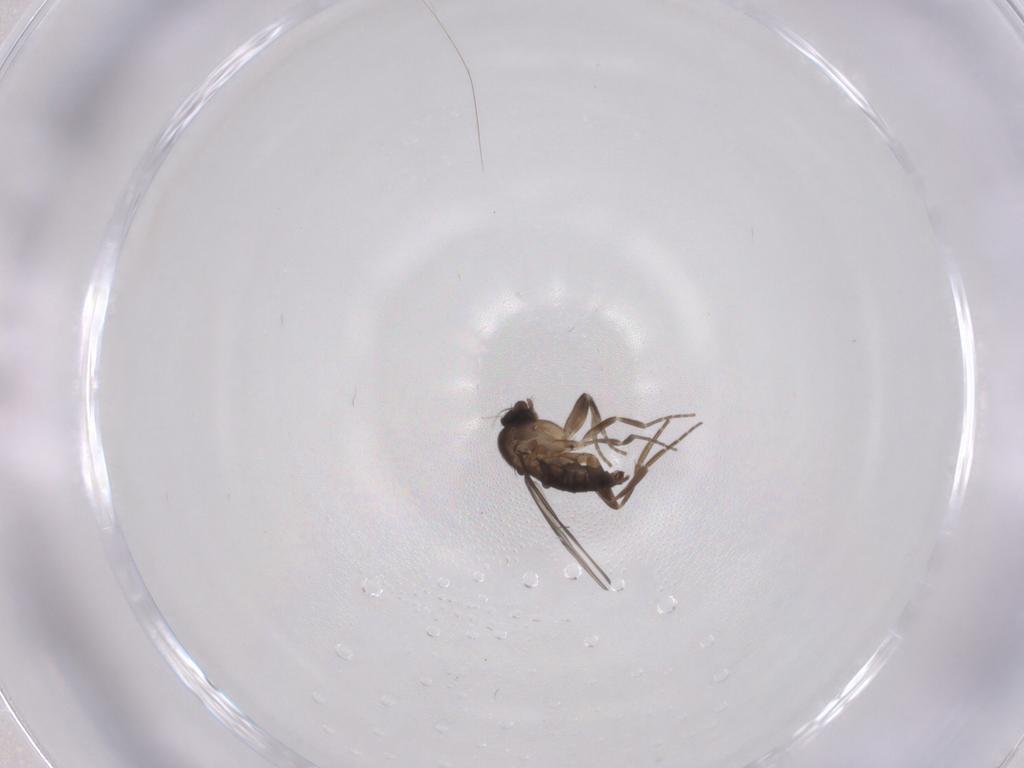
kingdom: Animalia
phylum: Arthropoda
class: Insecta
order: Diptera
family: Phoridae
